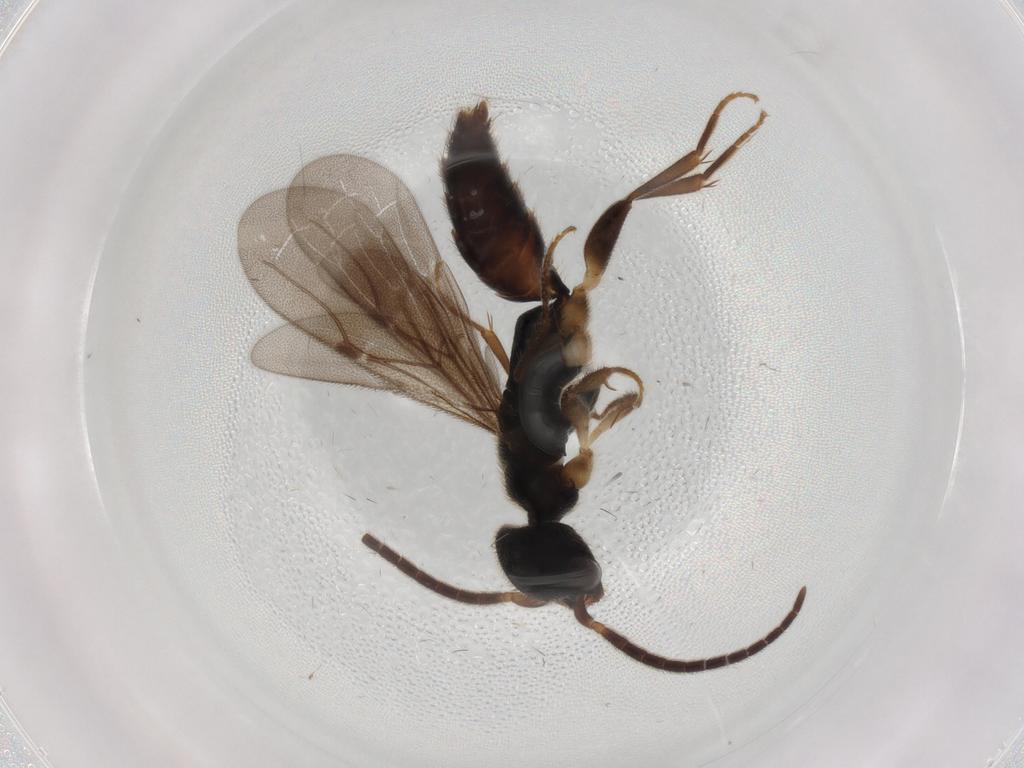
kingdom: Animalia
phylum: Arthropoda
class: Insecta
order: Hymenoptera
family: Bethylidae
